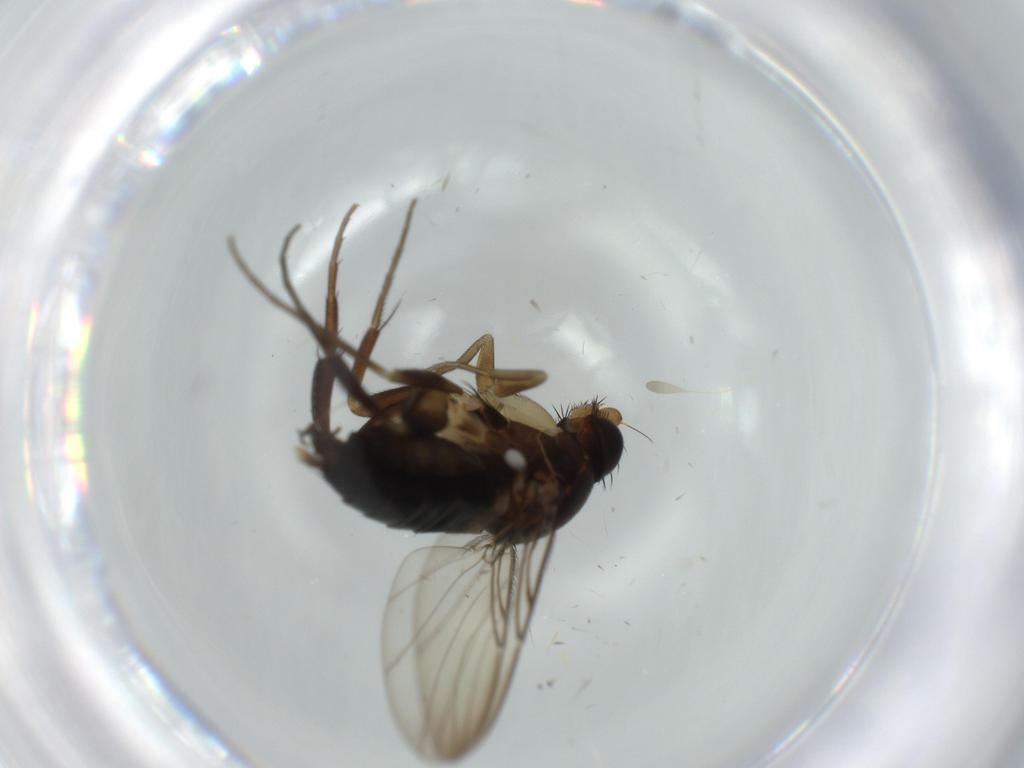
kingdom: Animalia
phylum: Arthropoda
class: Insecta
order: Diptera
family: Phoridae
